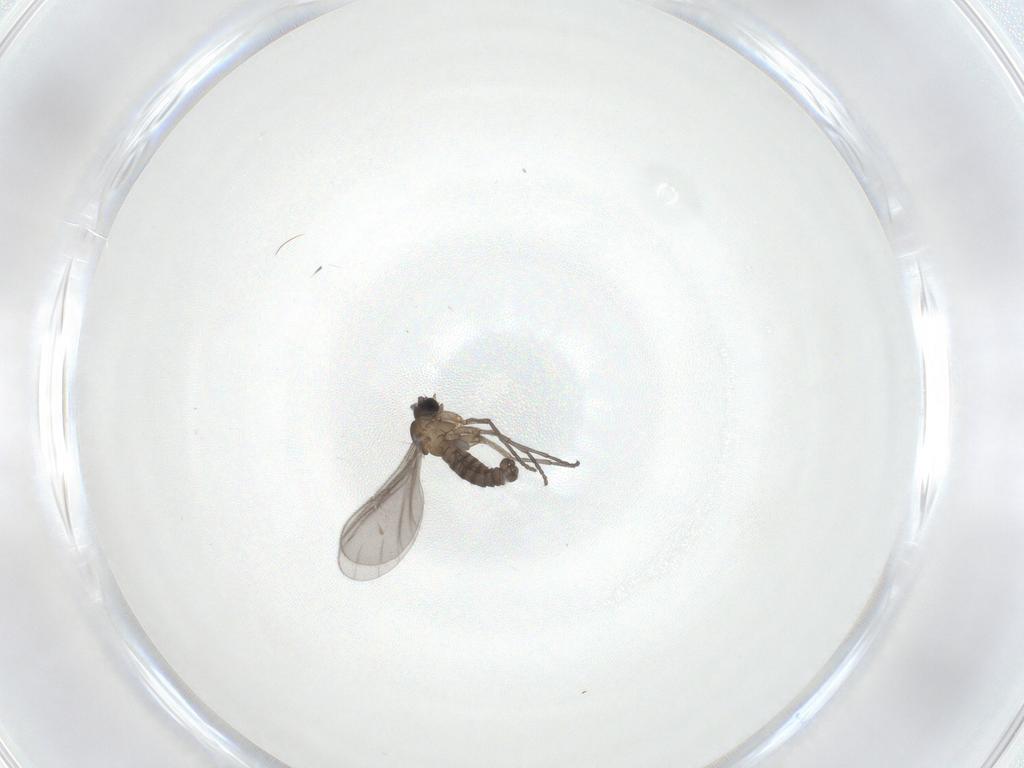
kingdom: Animalia
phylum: Arthropoda
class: Insecta
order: Diptera
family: Sciaridae
